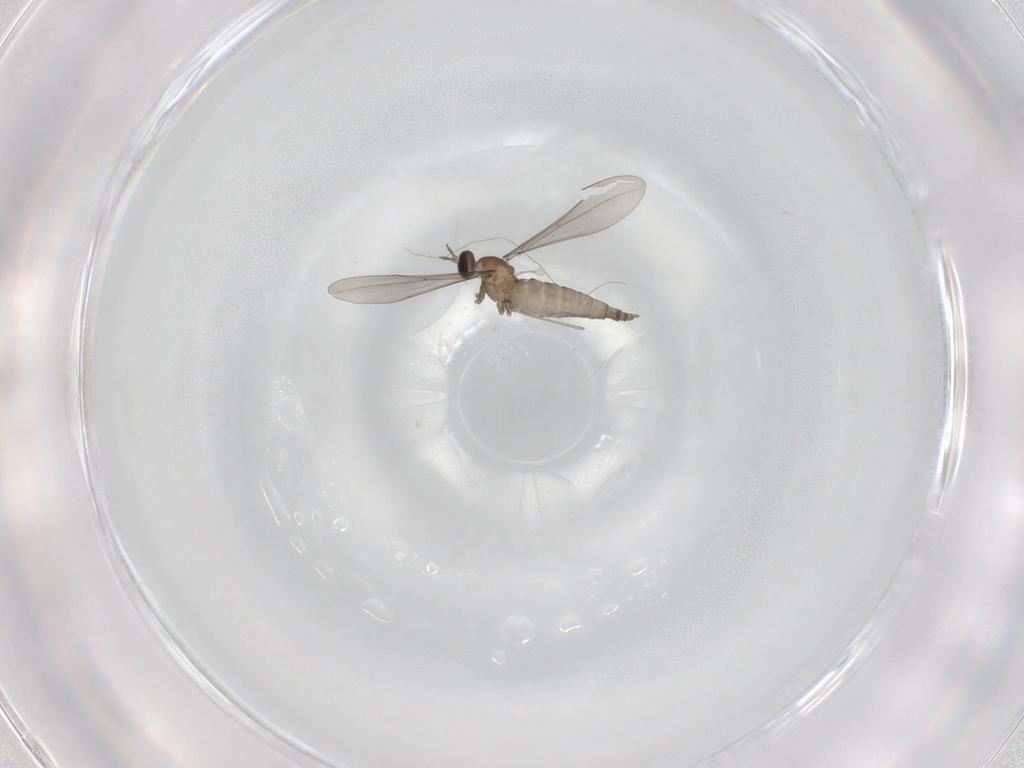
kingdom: Animalia
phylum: Arthropoda
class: Insecta
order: Diptera
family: Cecidomyiidae
